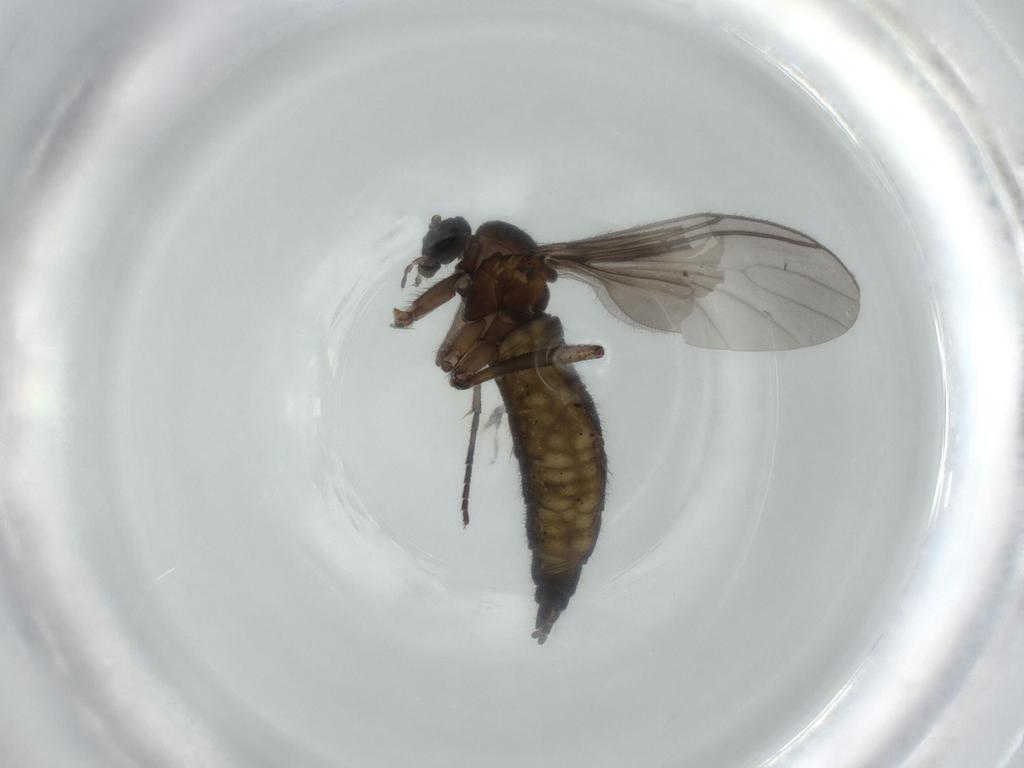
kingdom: Animalia
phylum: Arthropoda
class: Insecta
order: Diptera
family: Sciaridae
